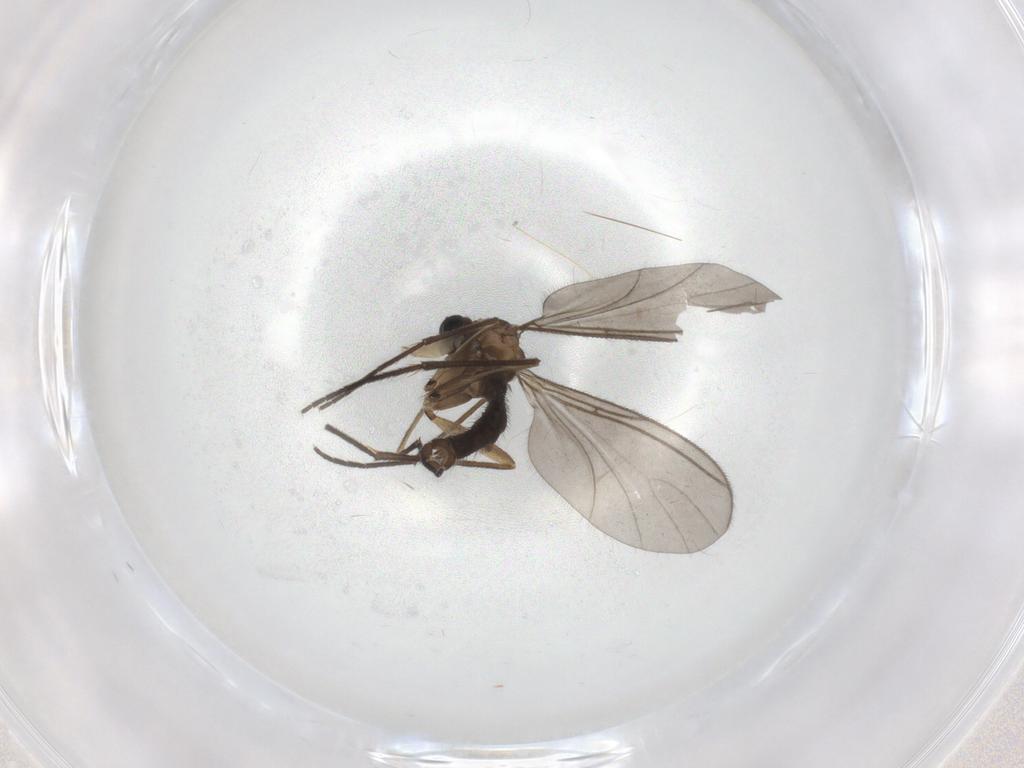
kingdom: Animalia
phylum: Arthropoda
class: Insecta
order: Diptera
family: Sciaridae
